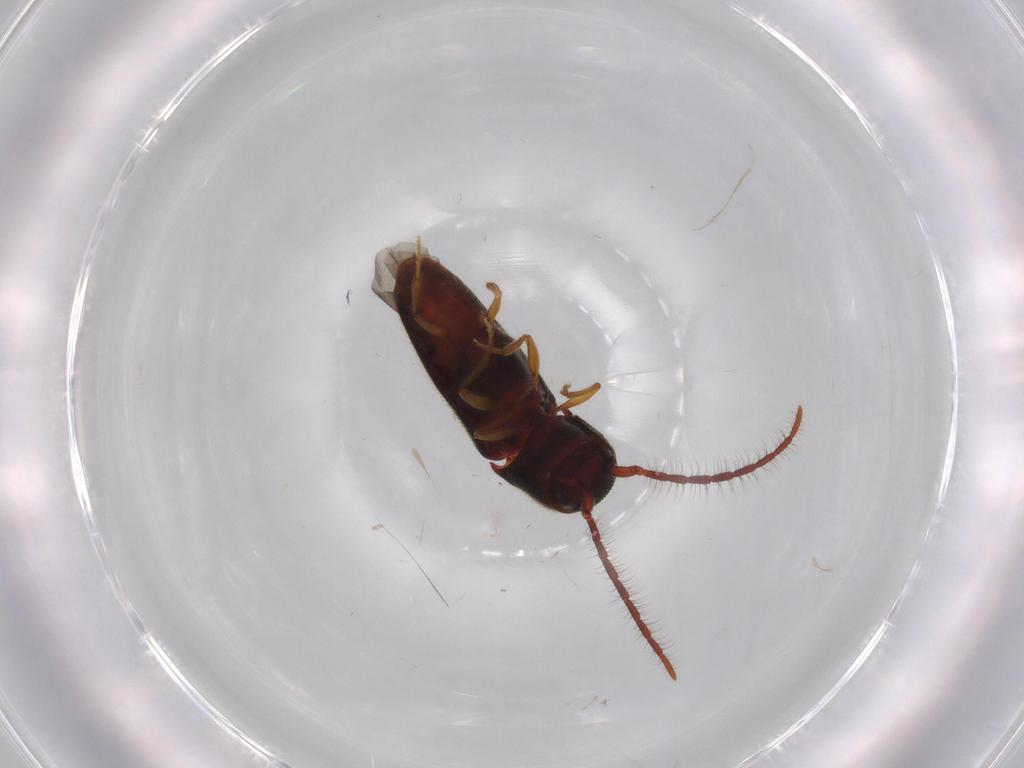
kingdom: Animalia
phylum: Arthropoda
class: Insecta
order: Coleoptera
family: Eucnemidae
